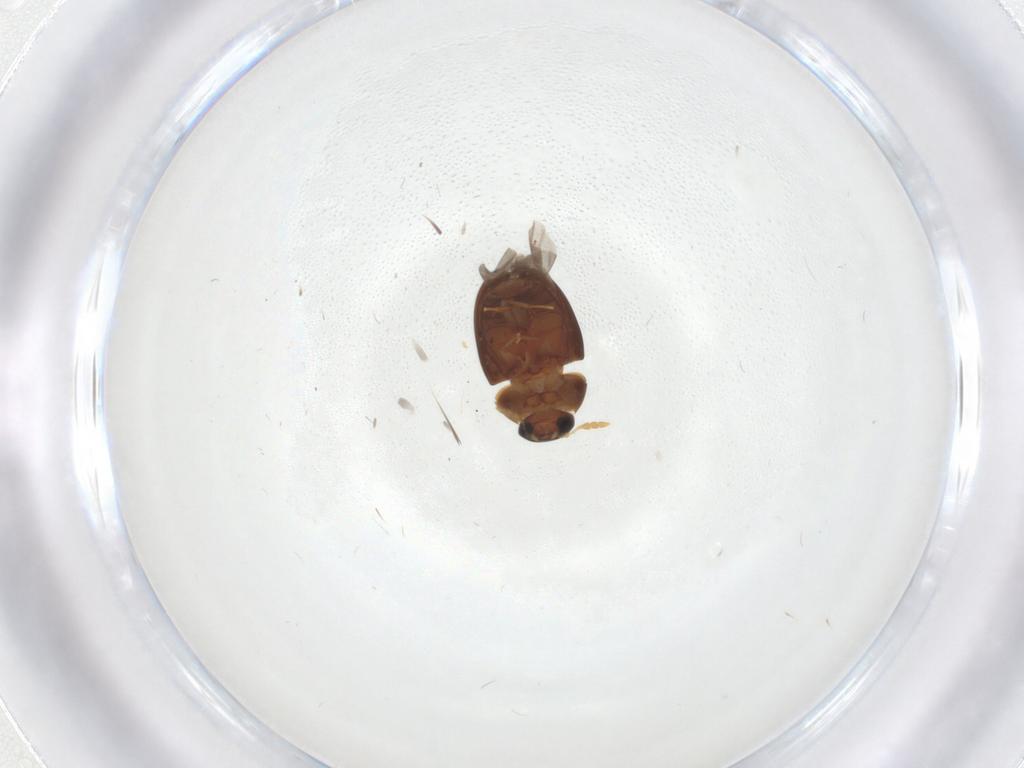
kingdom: Animalia
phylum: Arthropoda
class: Insecta
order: Coleoptera
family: Phalacridae
